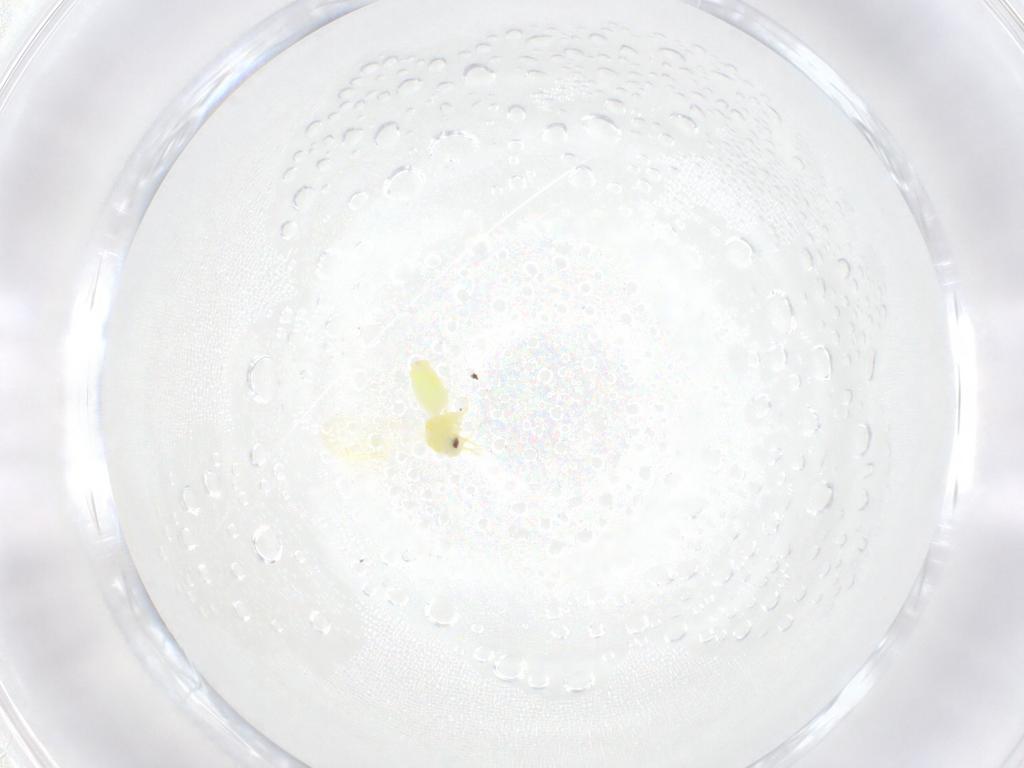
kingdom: Animalia
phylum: Arthropoda
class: Insecta
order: Hemiptera
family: Aleyrodidae
